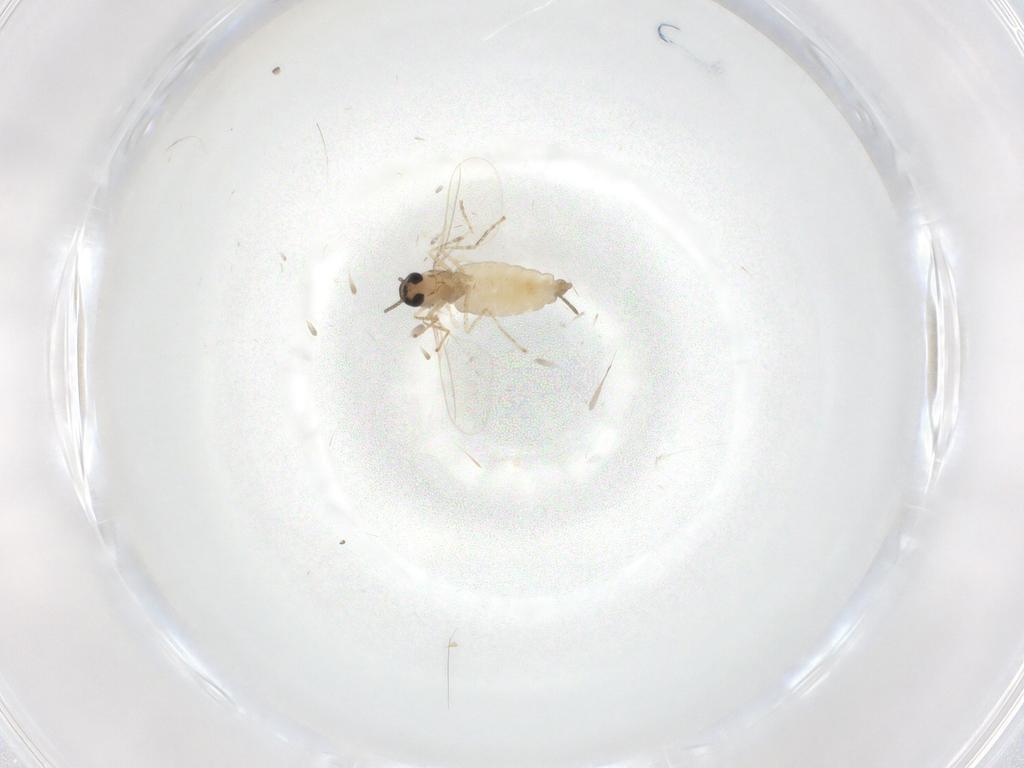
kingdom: Animalia
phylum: Arthropoda
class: Insecta
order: Diptera
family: Cecidomyiidae
